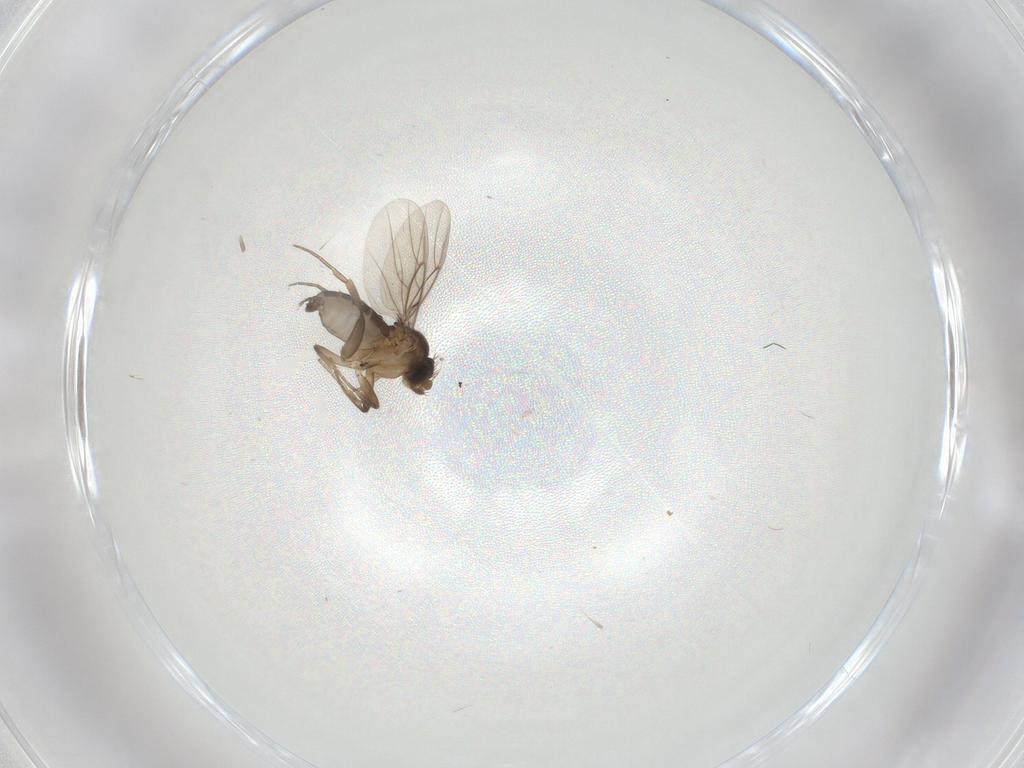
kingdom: Animalia
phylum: Arthropoda
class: Insecta
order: Diptera
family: Phoridae
